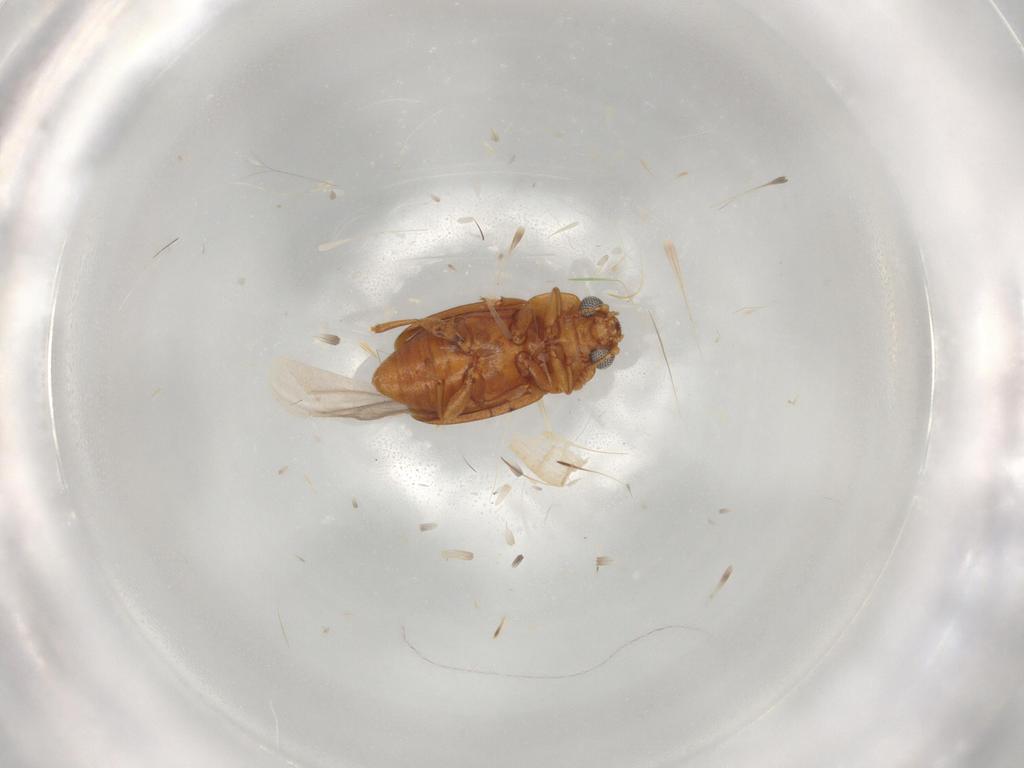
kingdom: Animalia
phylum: Arthropoda
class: Insecta
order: Coleoptera
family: Nitidulidae
